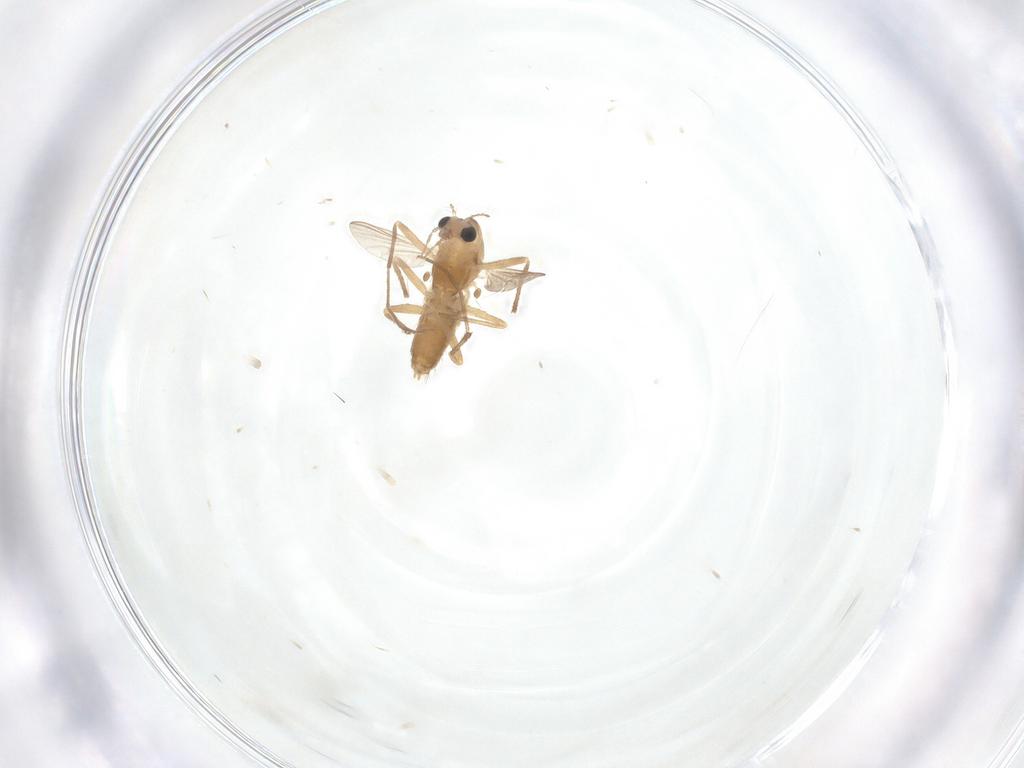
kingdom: Animalia
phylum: Arthropoda
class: Insecta
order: Diptera
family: Chironomidae
